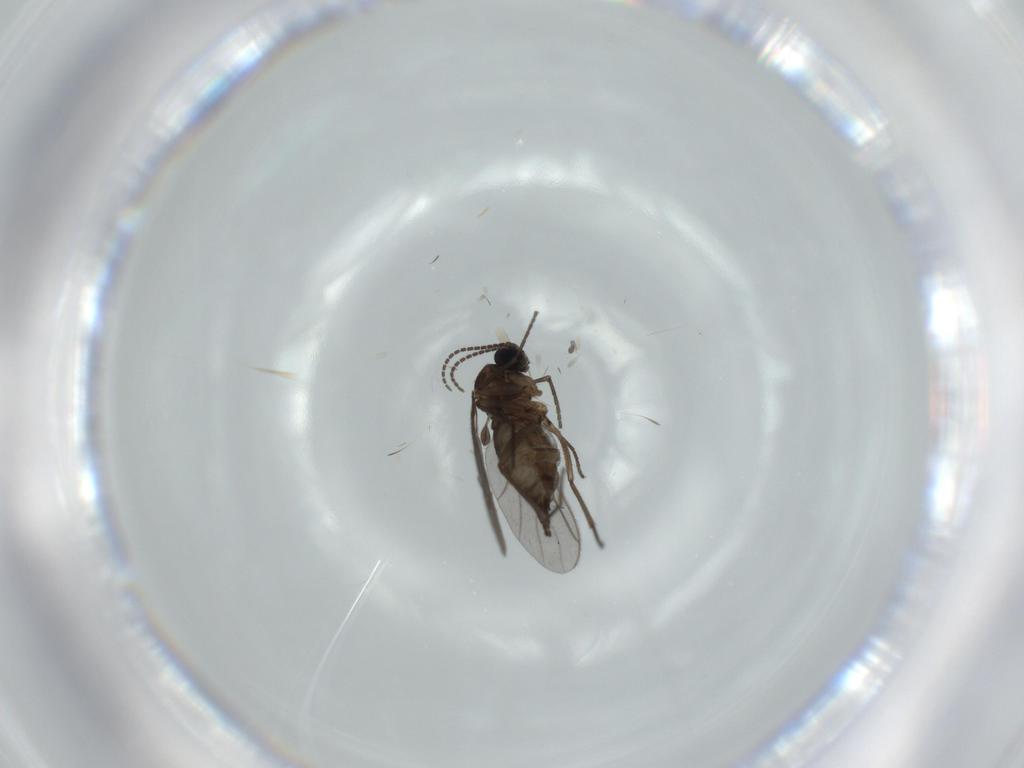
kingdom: Animalia
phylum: Arthropoda
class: Insecta
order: Diptera
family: Sciaridae
